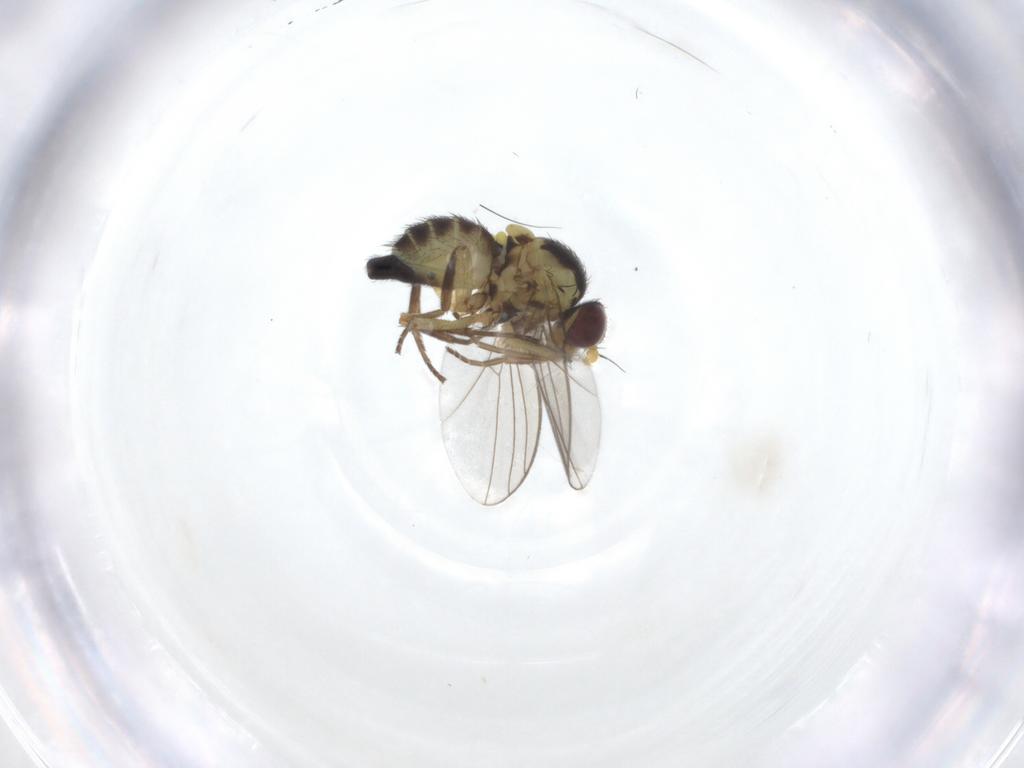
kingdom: Animalia
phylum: Arthropoda
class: Insecta
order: Diptera
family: Agromyzidae
